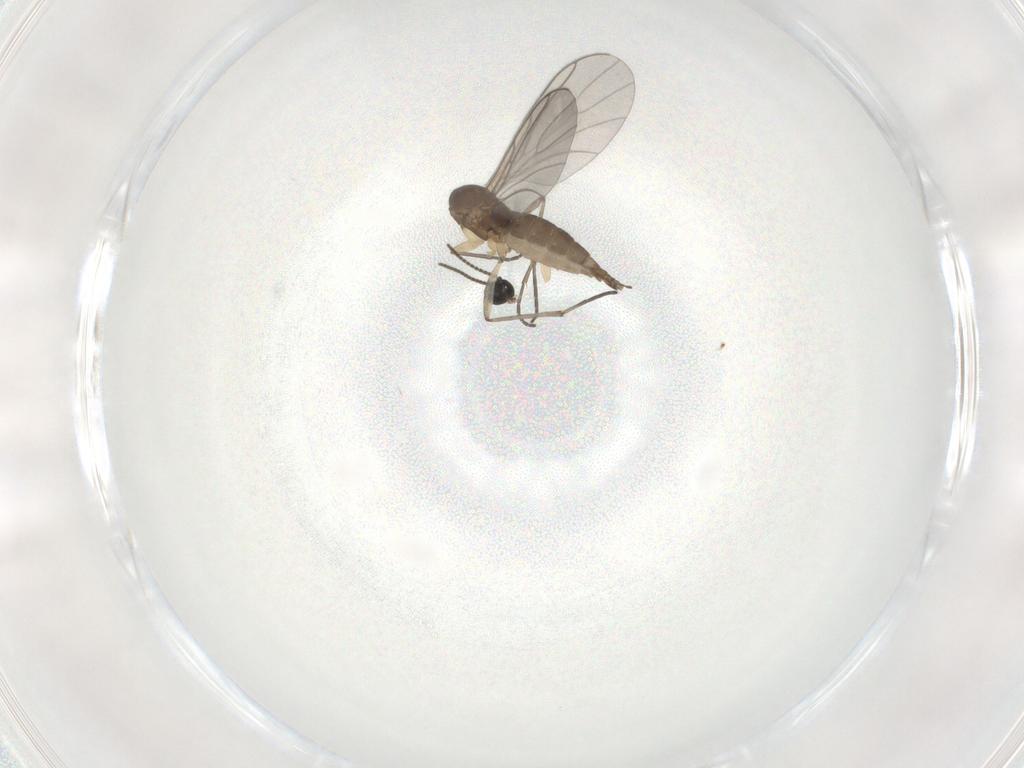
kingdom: Animalia
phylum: Arthropoda
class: Insecta
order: Diptera
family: Sciaridae
